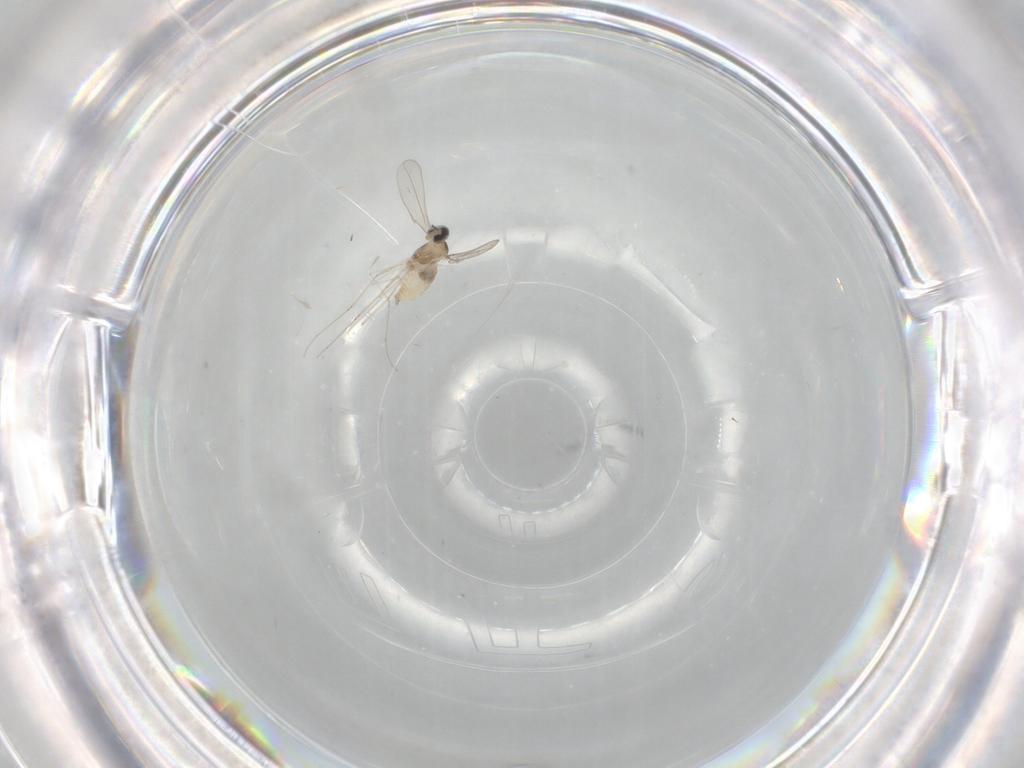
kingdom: Animalia
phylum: Arthropoda
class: Insecta
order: Diptera
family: Cecidomyiidae
